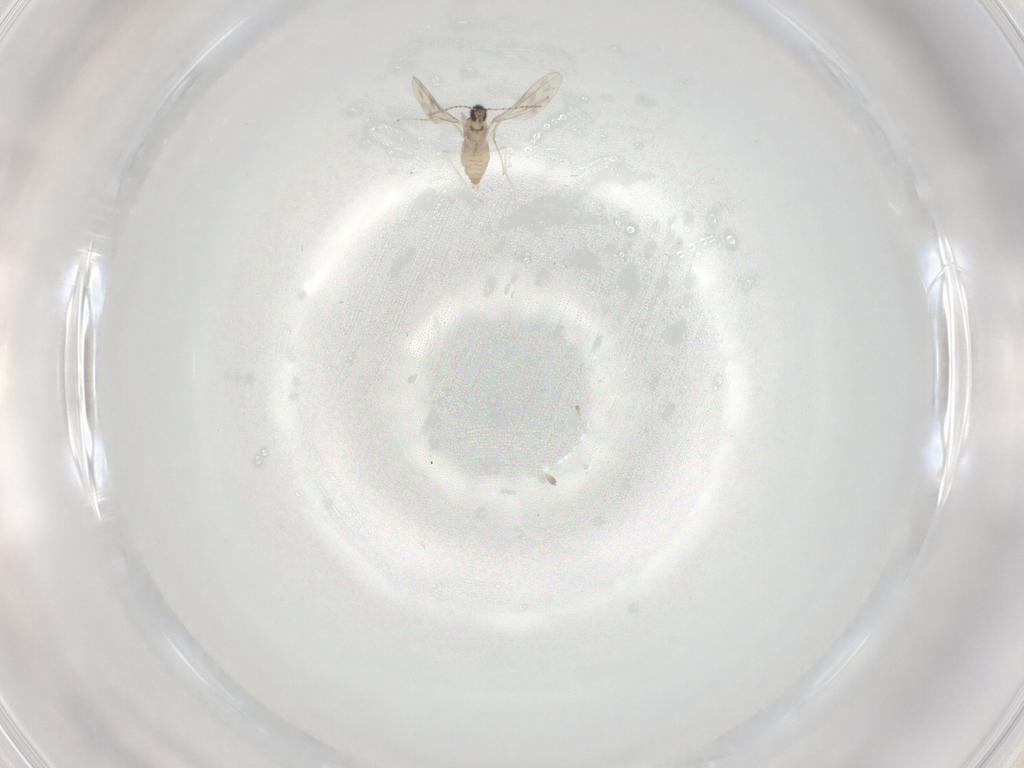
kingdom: Animalia
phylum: Arthropoda
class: Insecta
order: Diptera
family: Cecidomyiidae
